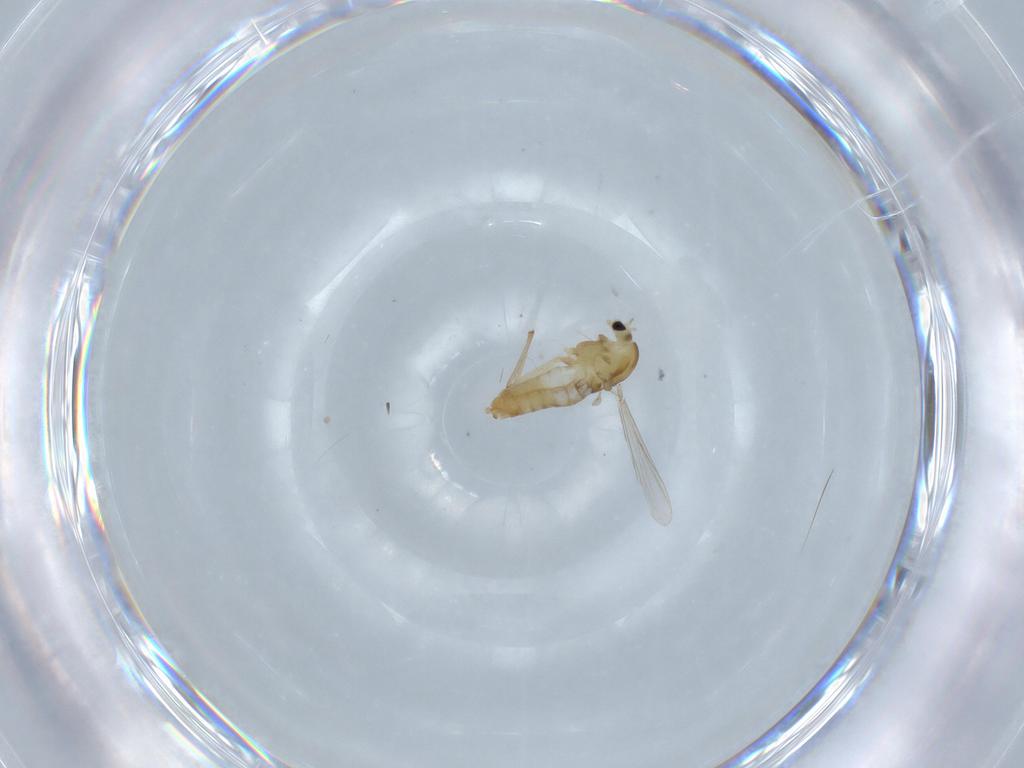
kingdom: Animalia
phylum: Arthropoda
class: Insecta
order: Diptera
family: Chironomidae
